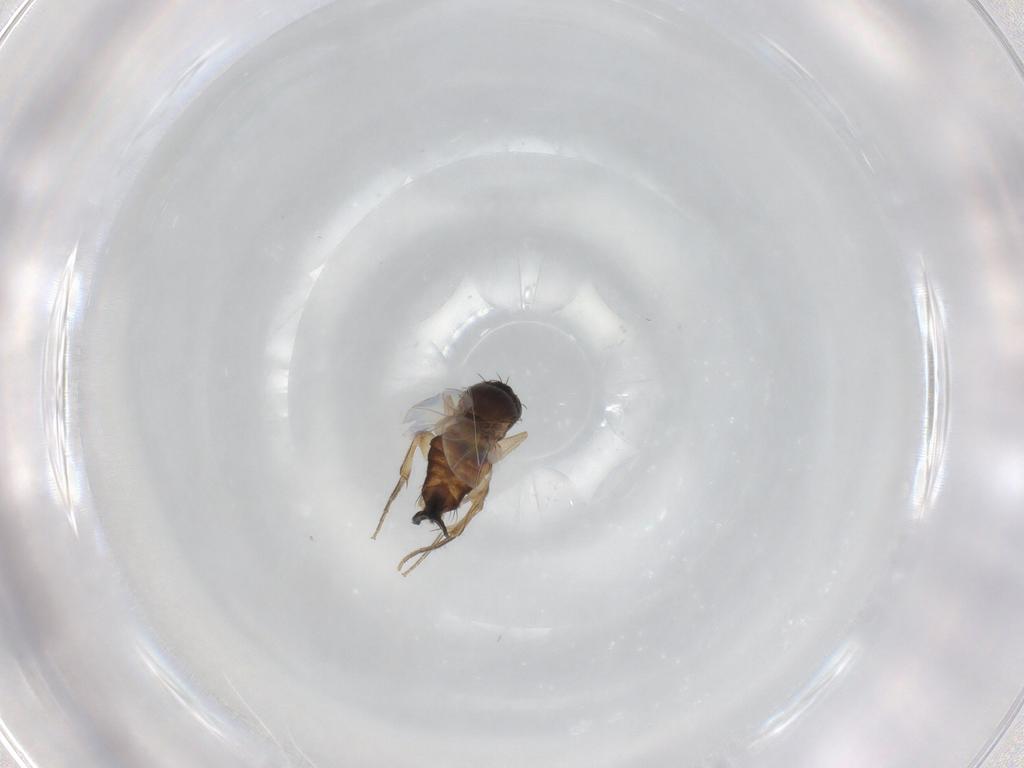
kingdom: Animalia
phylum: Arthropoda
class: Insecta
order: Diptera
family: Phoridae
